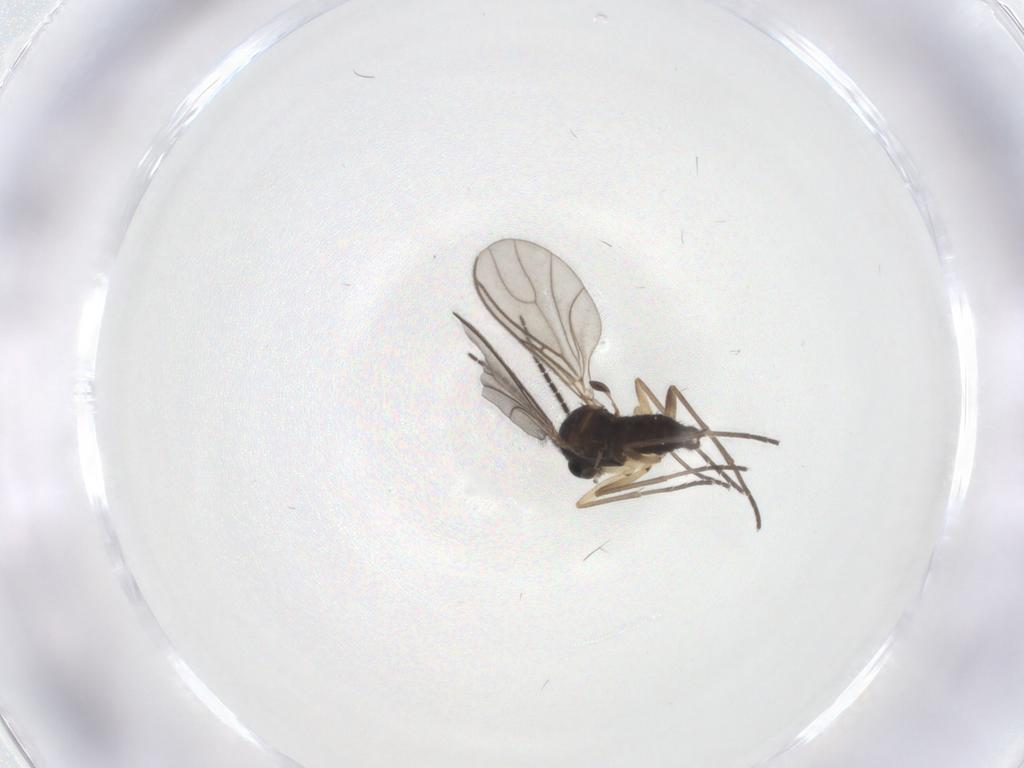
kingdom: Animalia
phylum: Arthropoda
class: Insecta
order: Diptera
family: Sciaridae
